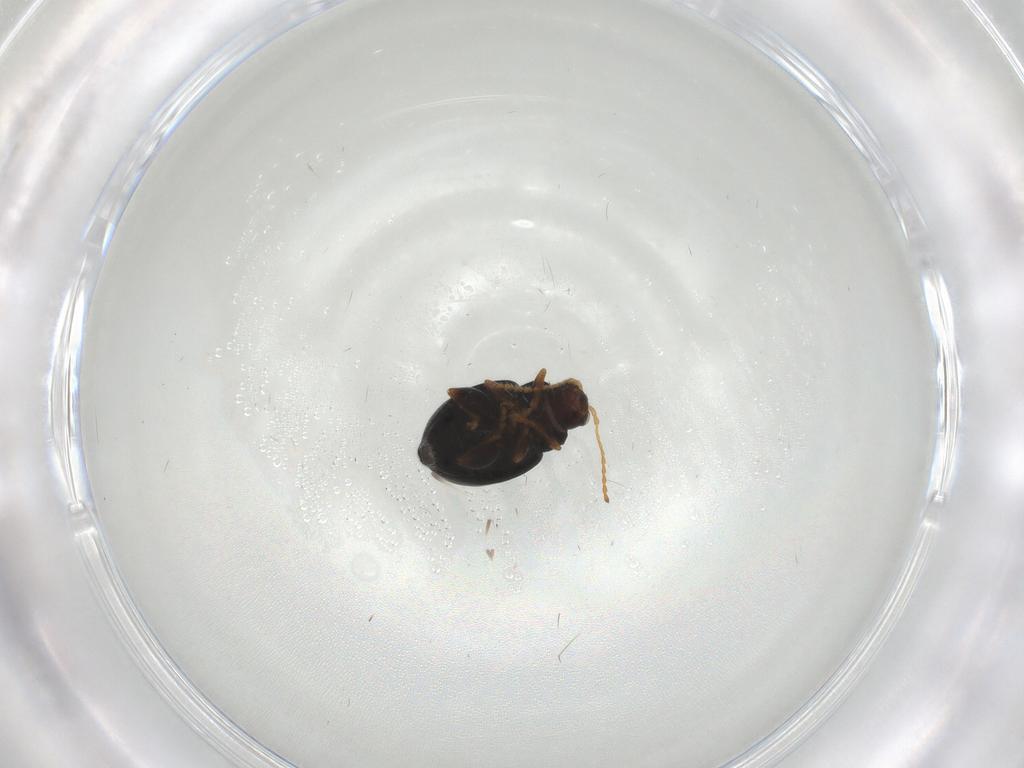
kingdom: Animalia
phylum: Arthropoda
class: Insecta
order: Coleoptera
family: Chrysomelidae
